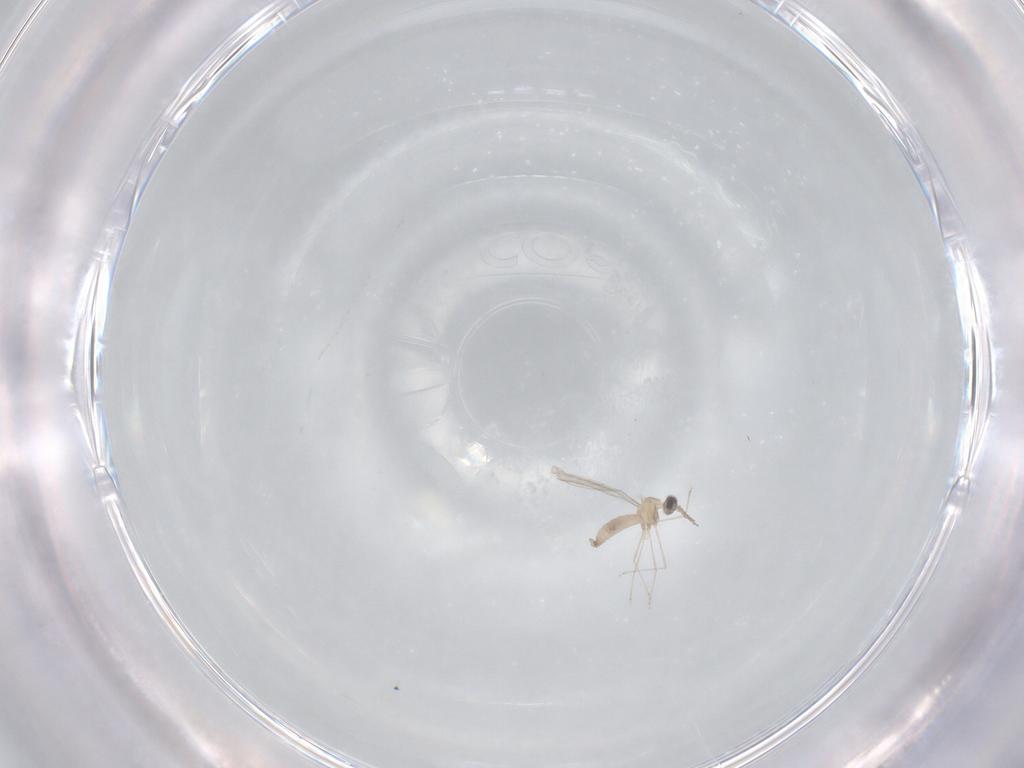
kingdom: Animalia
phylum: Arthropoda
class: Insecta
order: Diptera
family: Phoridae
